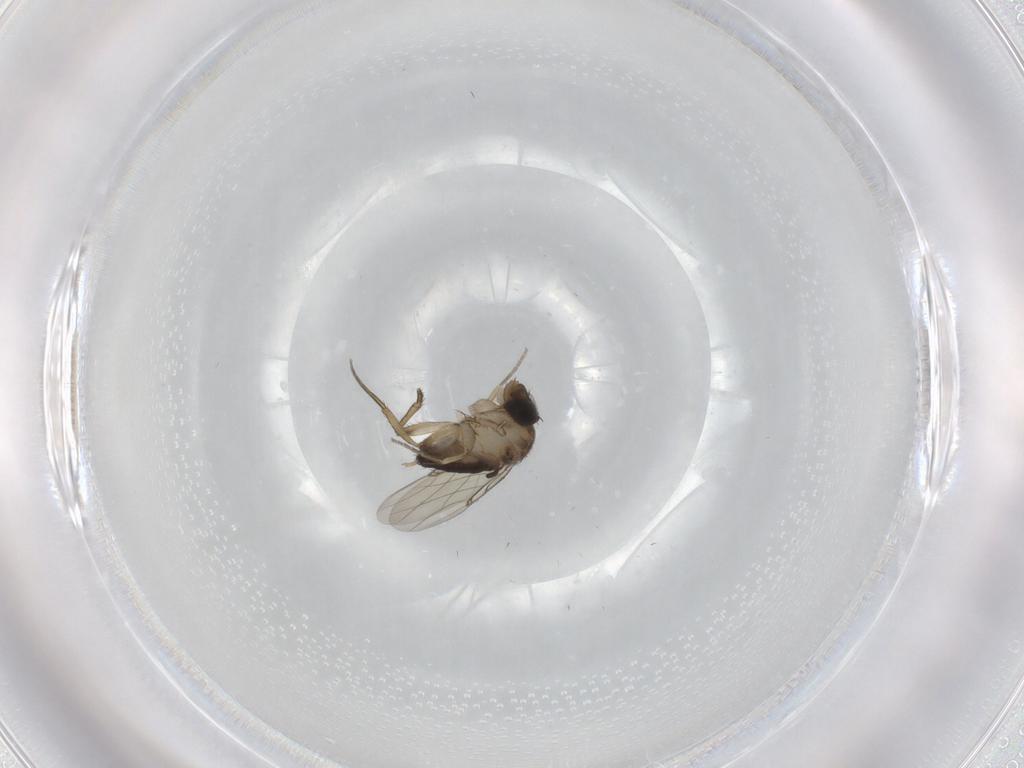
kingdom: Animalia
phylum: Arthropoda
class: Insecta
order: Diptera
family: Phoridae
